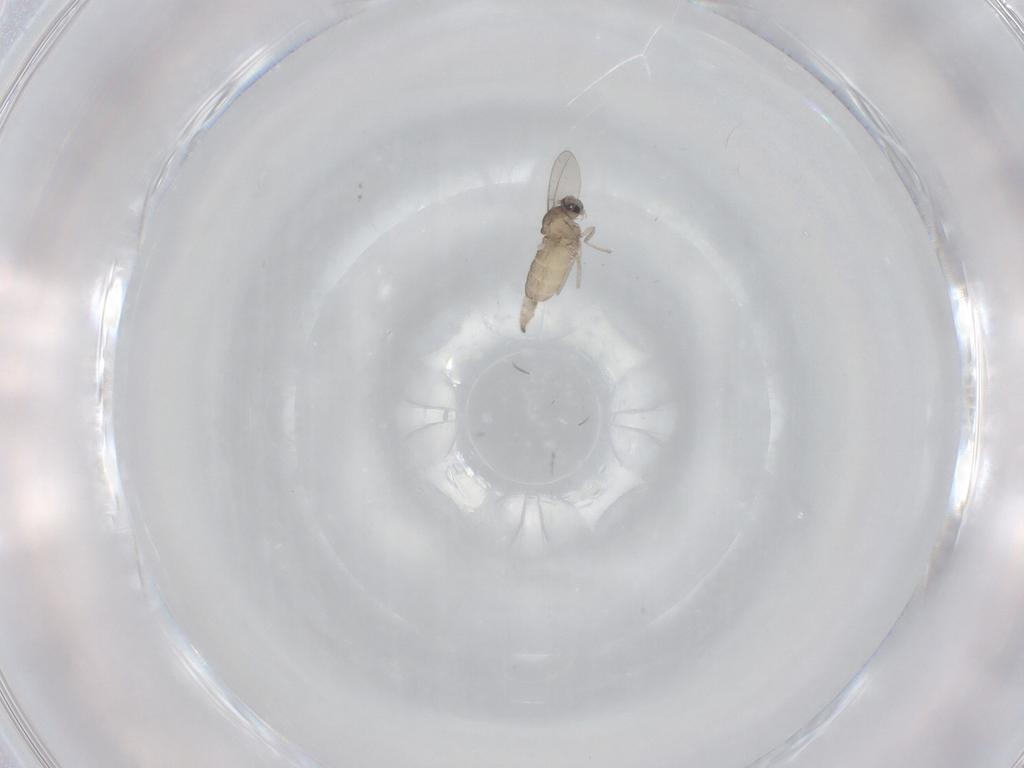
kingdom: Animalia
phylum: Arthropoda
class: Insecta
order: Diptera
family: Cecidomyiidae
